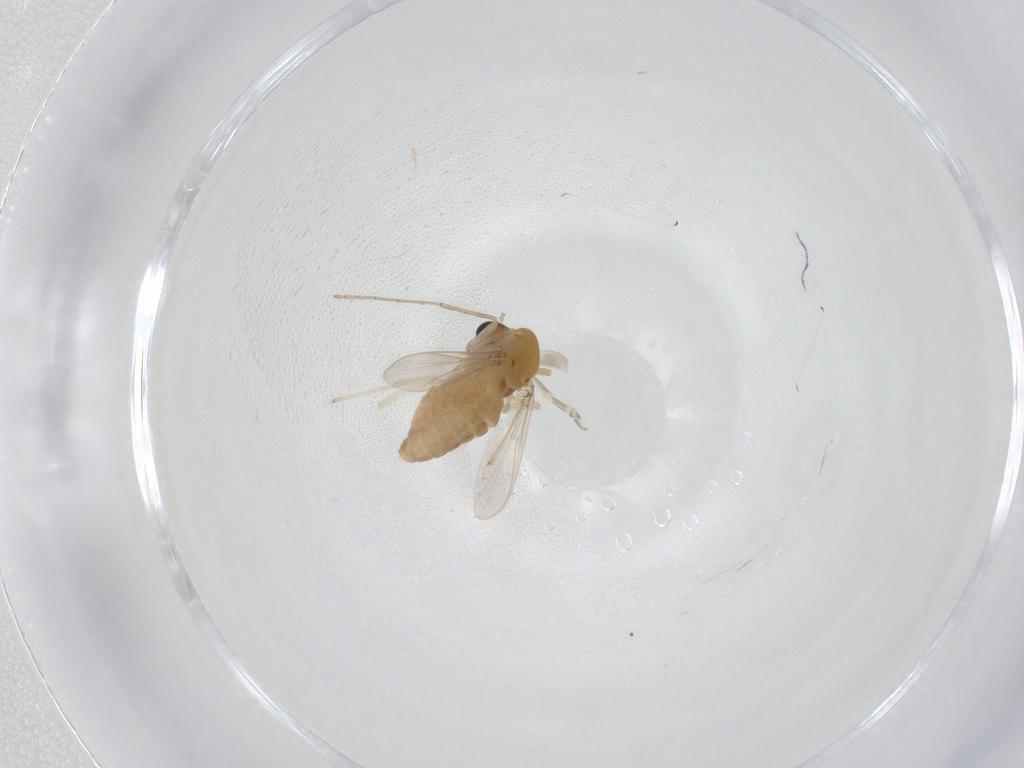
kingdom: Animalia
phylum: Arthropoda
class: Insecta
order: Diptera
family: Chironomidae
